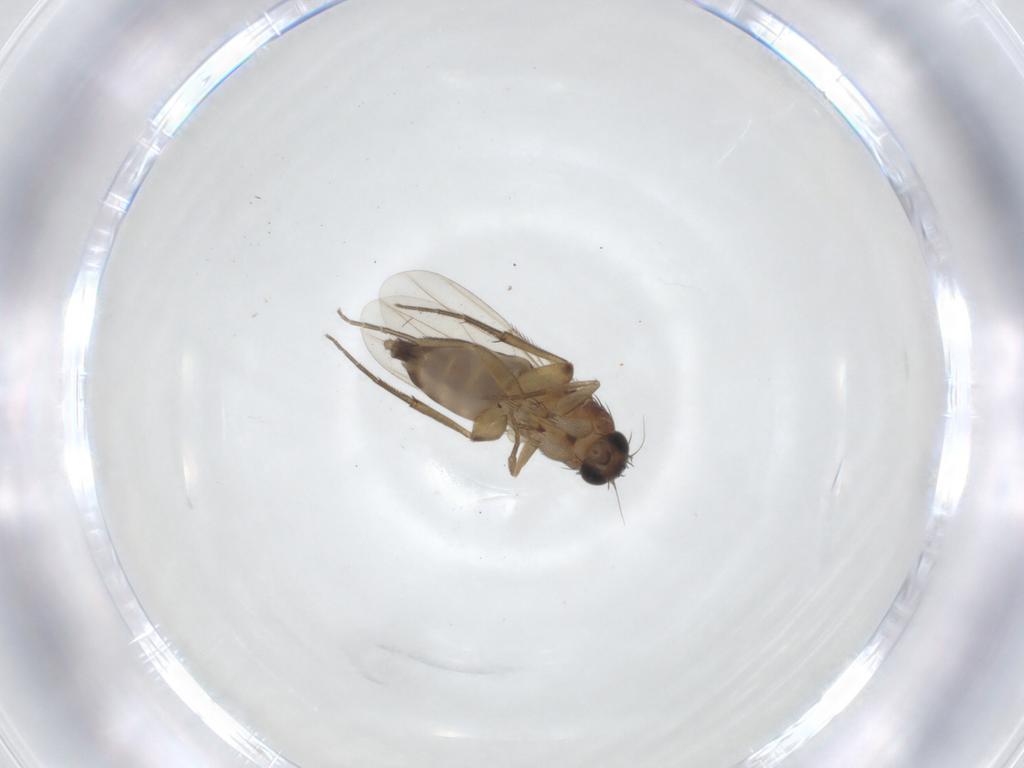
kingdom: Animalia
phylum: Arthropoda
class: Insecta
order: Diptera
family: Phoridae
